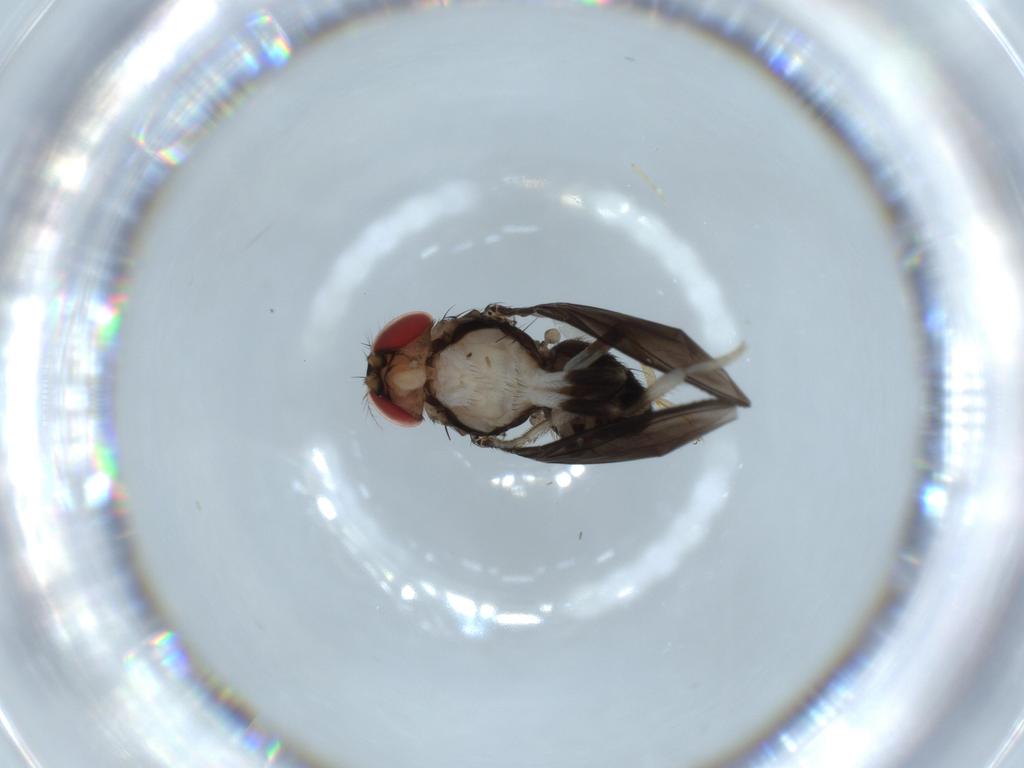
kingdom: Animalia
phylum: Arthropoda
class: Insecta
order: Diptera
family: Drosophilidae
